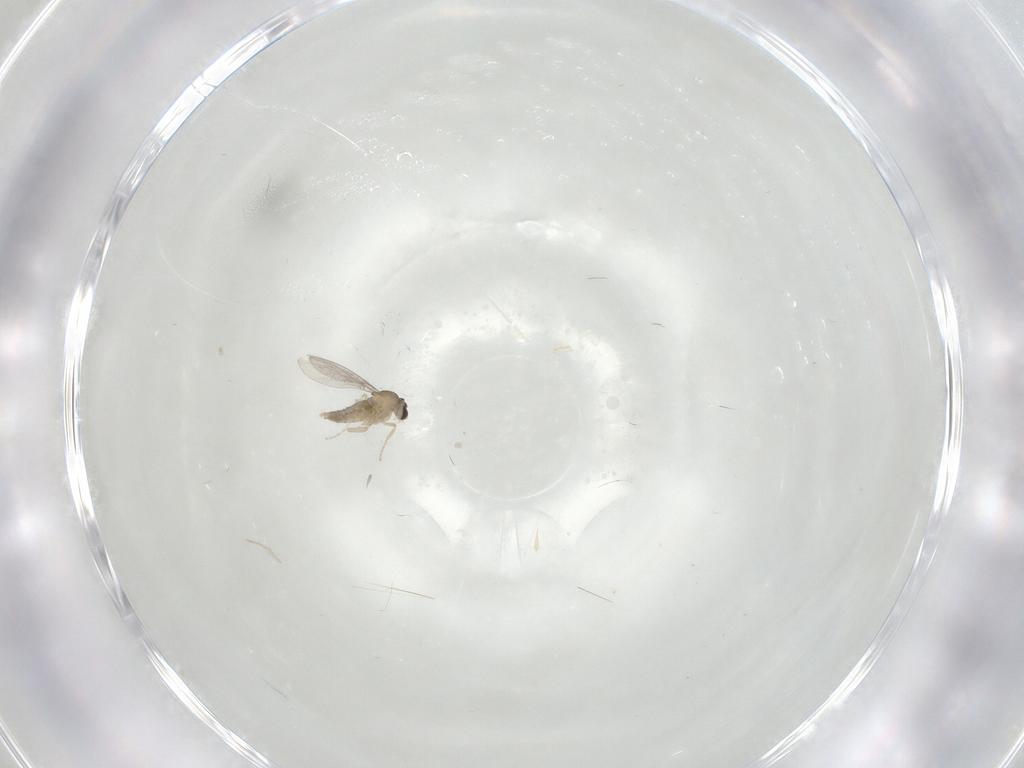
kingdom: Animalia
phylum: Arthropoda
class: Insecta
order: Diptera
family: Cecidomyiidae
